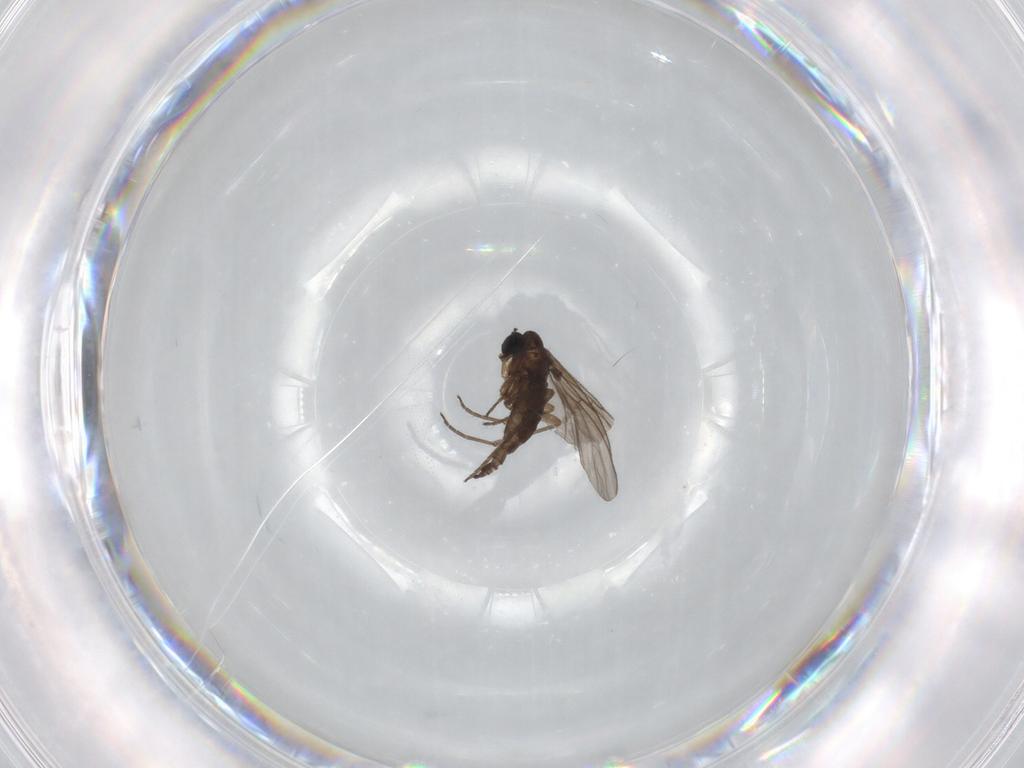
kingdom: Animalia
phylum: Arthropoda
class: Insecta
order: Diptera
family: Sciaridae
